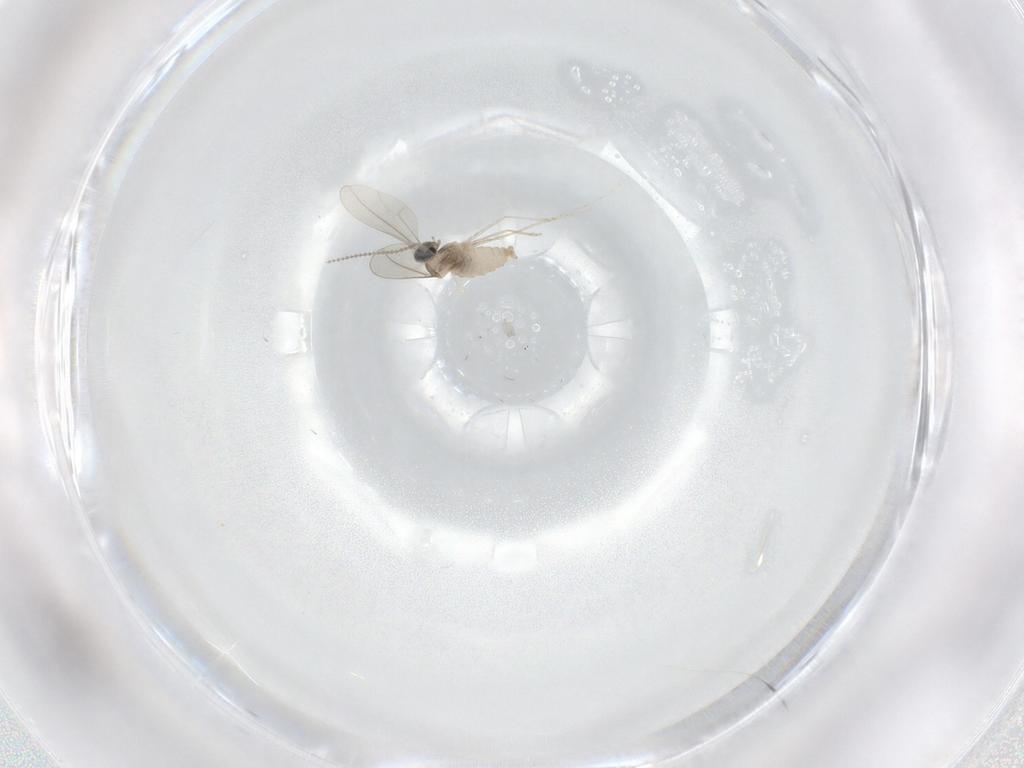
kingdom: Animalia
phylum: Arthropoda
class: Insecta
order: Diptera
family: Cecidomyiidae
